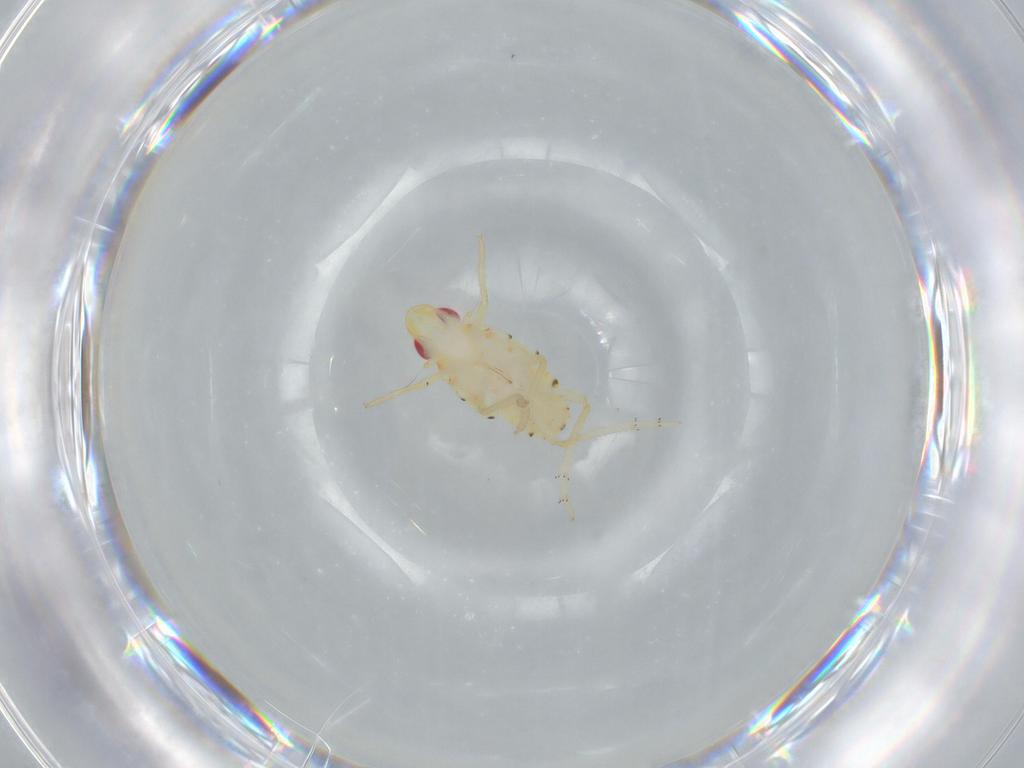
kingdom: Animalia
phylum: Arthropoda
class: Insecta
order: Hemiptera
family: Tropiduchidae
